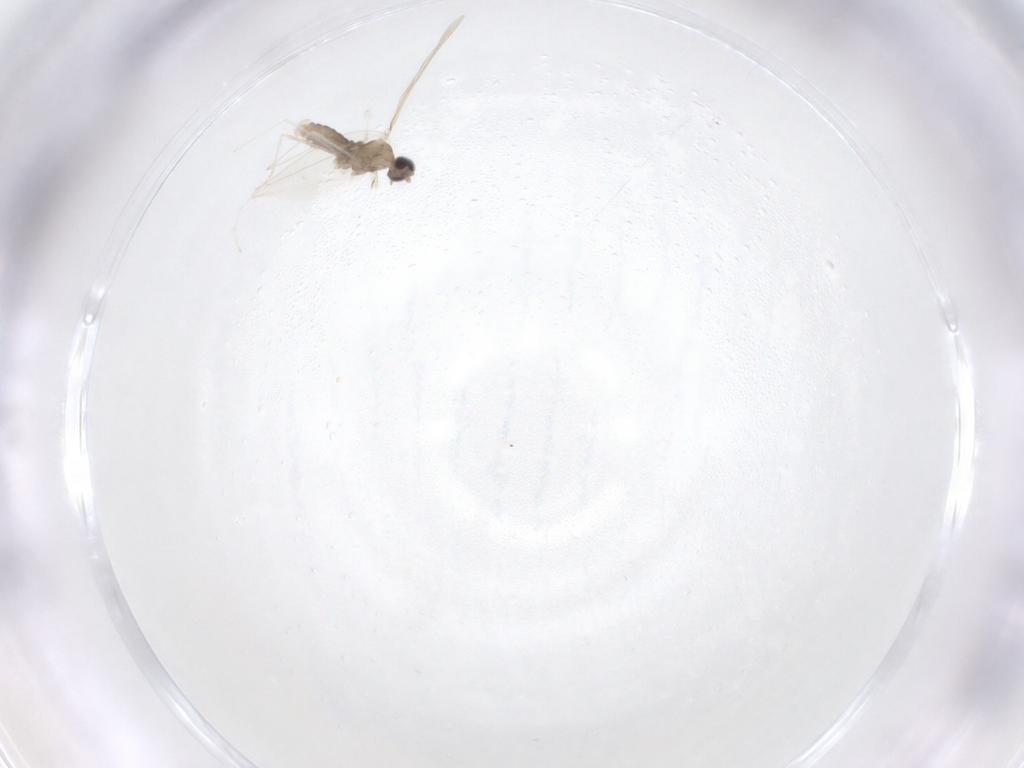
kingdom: Animalia
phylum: Arthropoda
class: Insecta
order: Diptera
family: Cecidomyiidae
